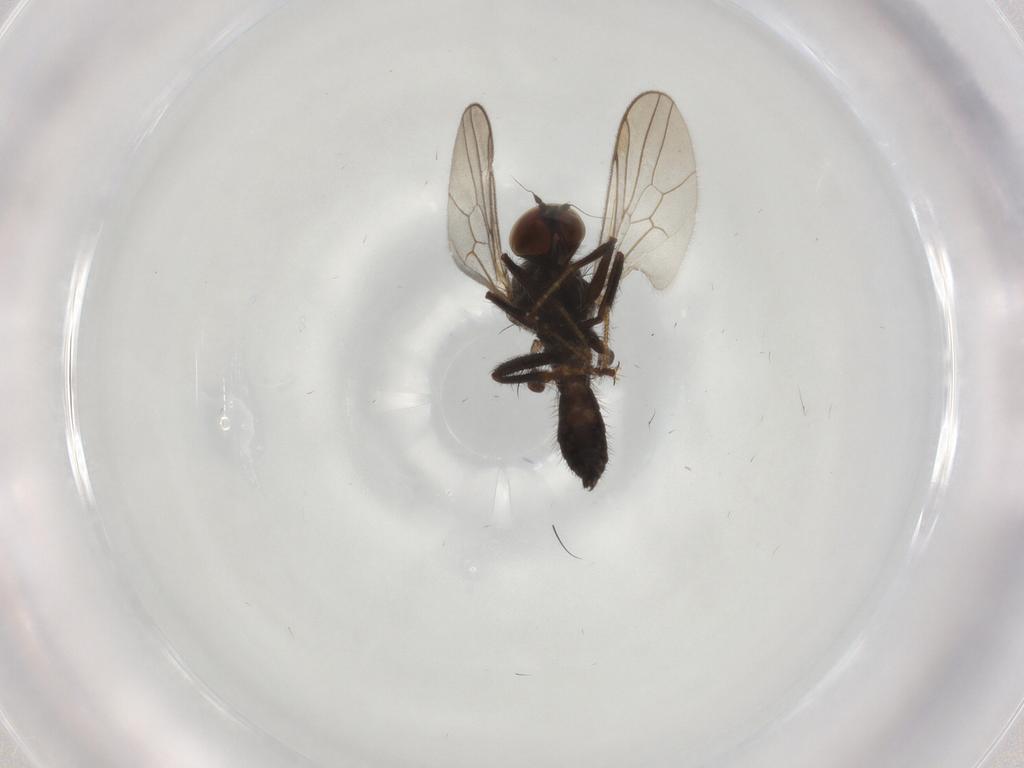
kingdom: Animalia
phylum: Arthropoda
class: Insecta
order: Diptera
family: Hybotidae
